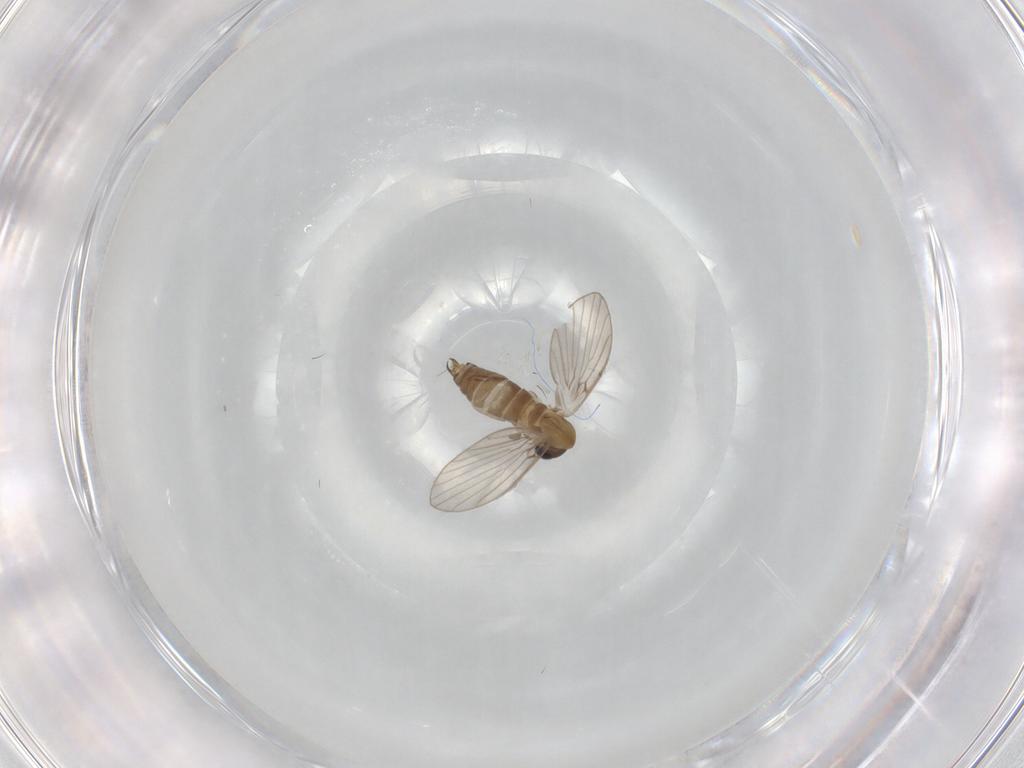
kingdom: Animalia
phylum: Arthropoda
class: Insecta
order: Diptera
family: Psychodidae
